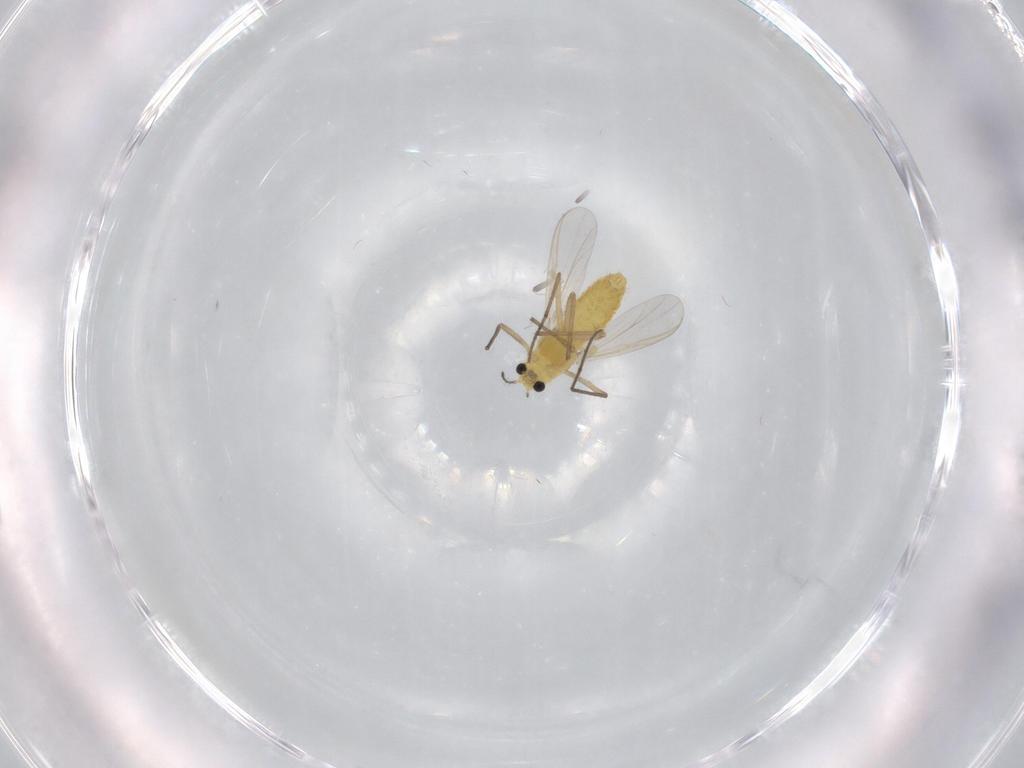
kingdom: Animalia
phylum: Arthropoda
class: Insecta
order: Diptera
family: Chironomidae
